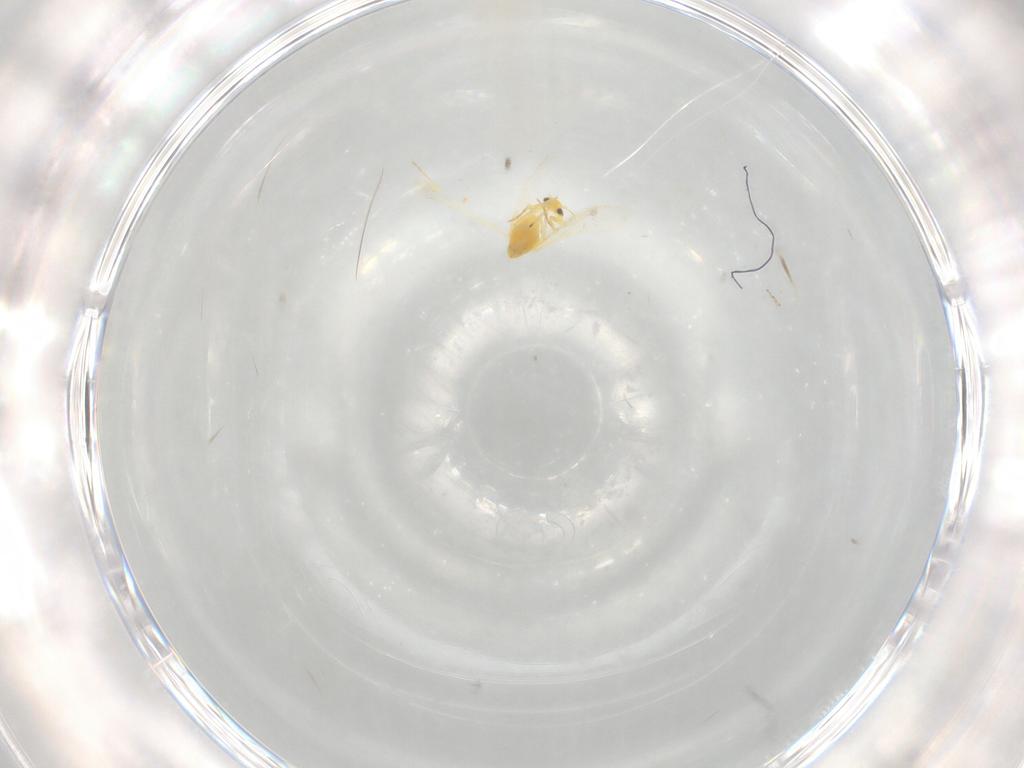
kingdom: Animalia
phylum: Arthropoda
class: Insecta
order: Hemiptera
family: Aleyrodidae
